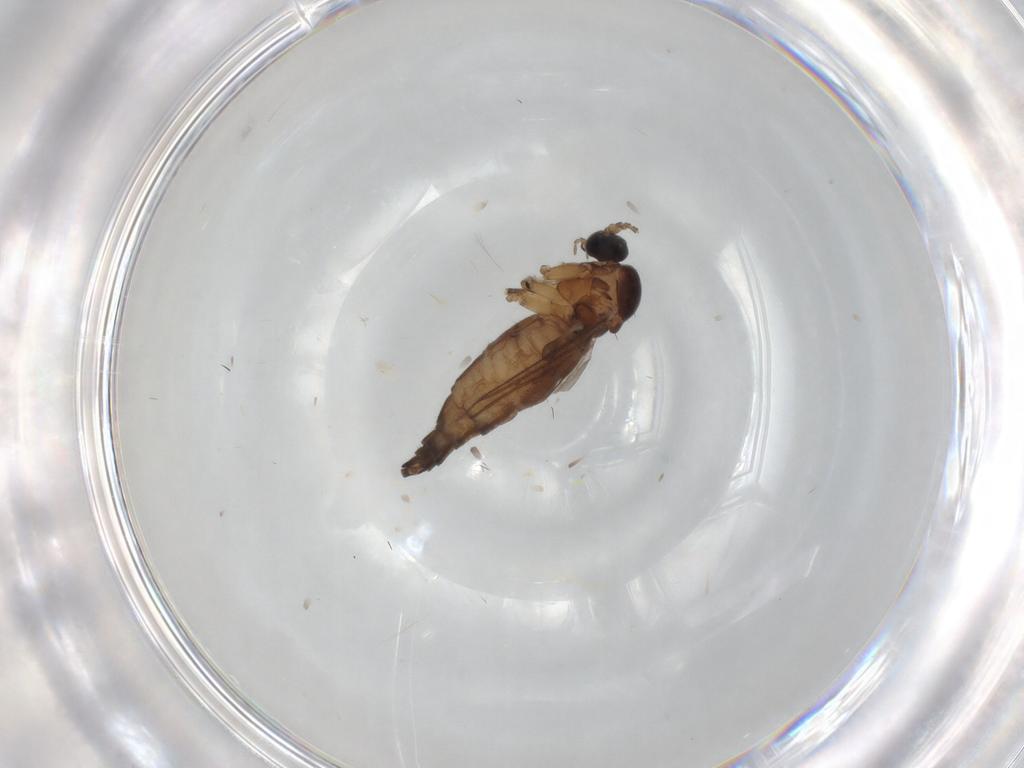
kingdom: Animalia
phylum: Arthropoda
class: Insecta
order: Diptera
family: Sciaridae
